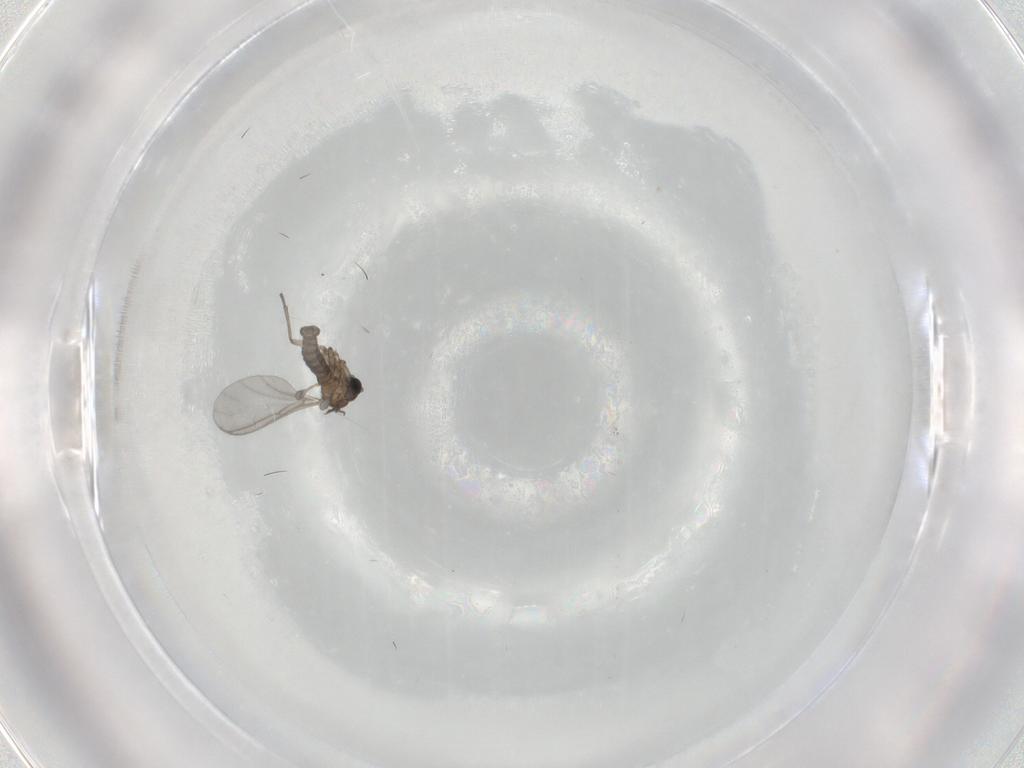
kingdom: Animalia
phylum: Arthropoda
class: Insecta
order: Diptera
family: Sciaridae
